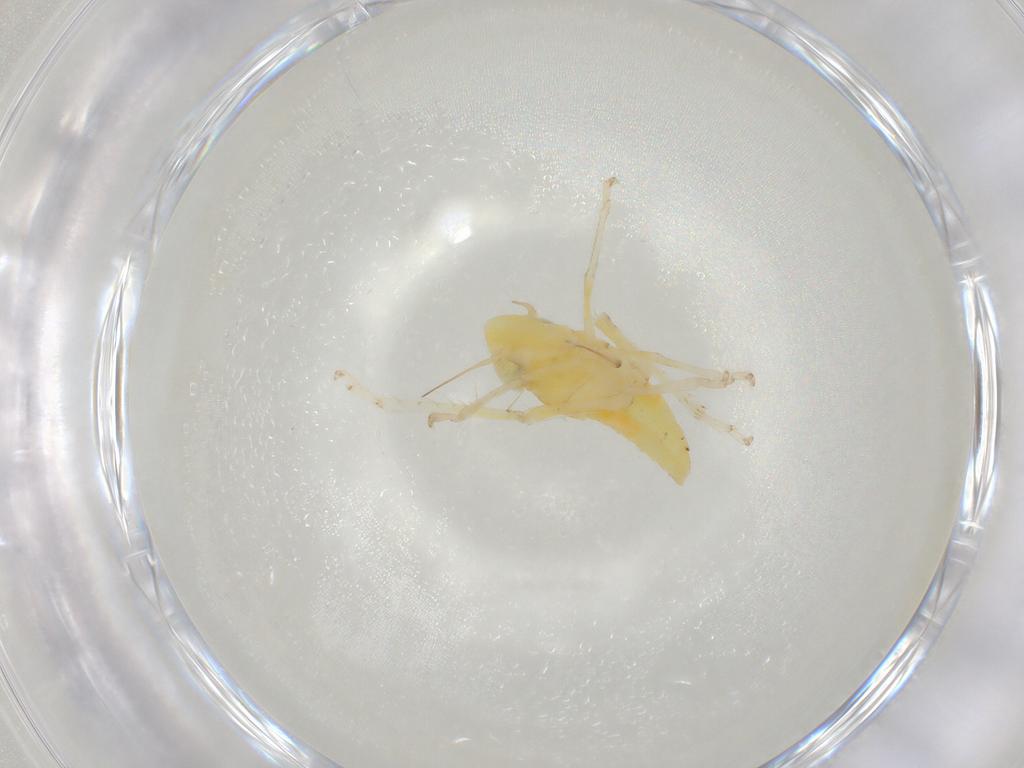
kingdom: Animalia
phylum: Arthropoda
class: Insecta
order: Hemiptera
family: Cicadellidae
